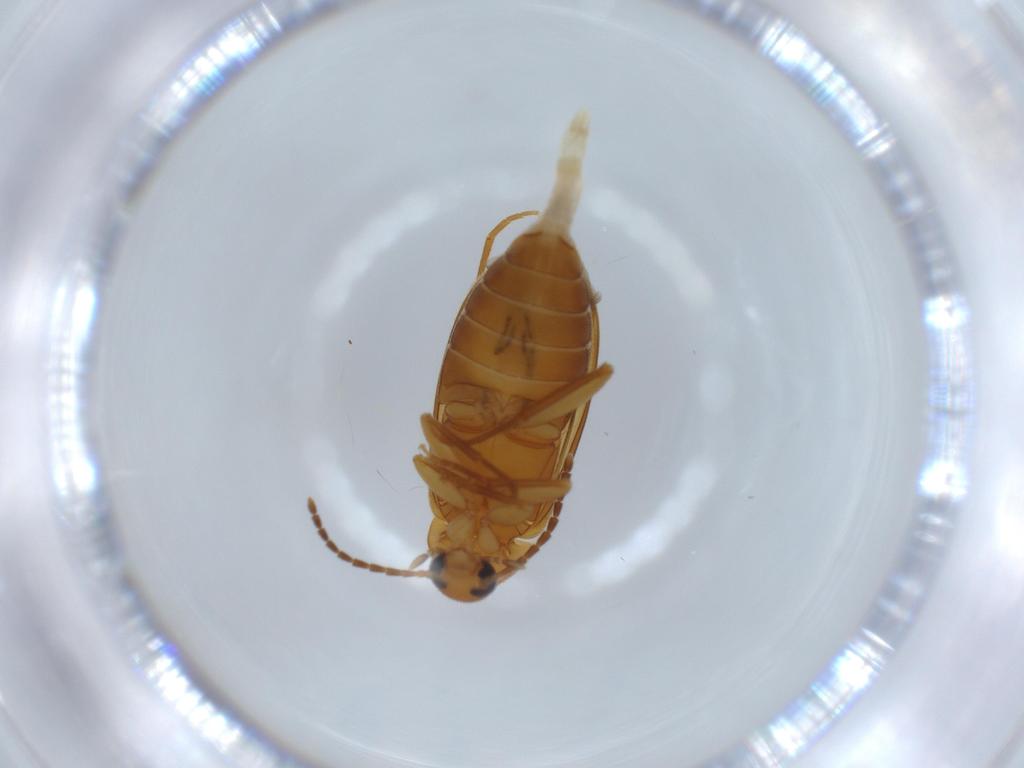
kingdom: Animalia
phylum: Arthropoda
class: Insecta
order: Coleoptera
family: Scraptiidae
